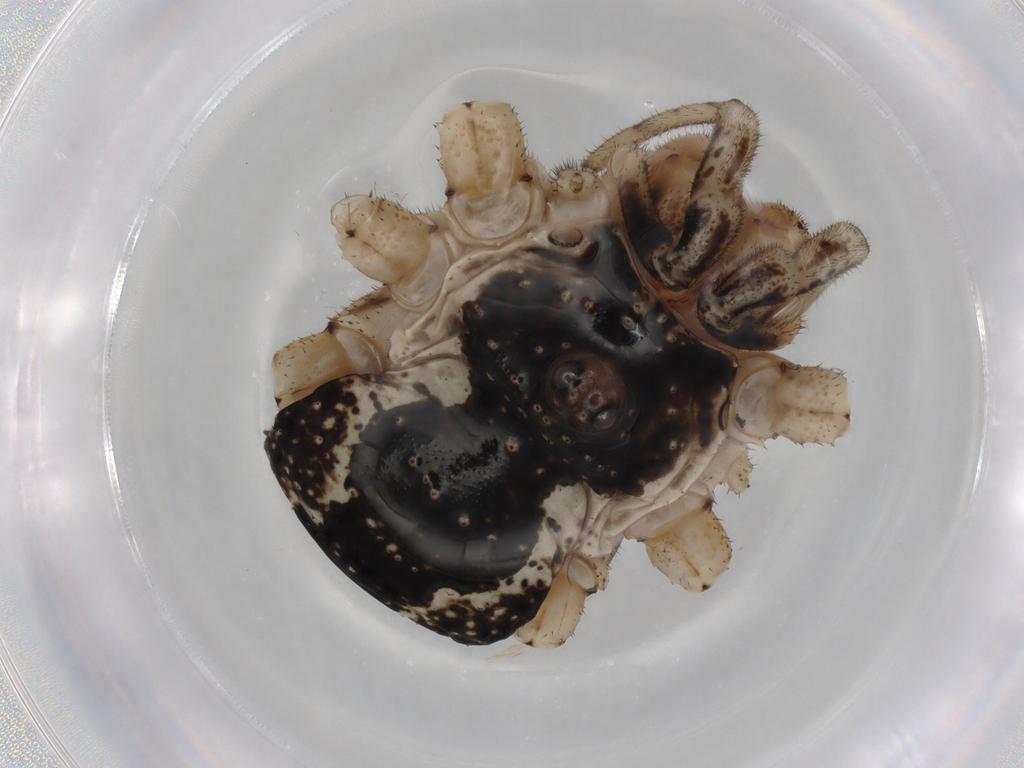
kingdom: Animalia
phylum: Arthropoda
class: Arachnida
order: Opiliones
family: Phalangiidae
